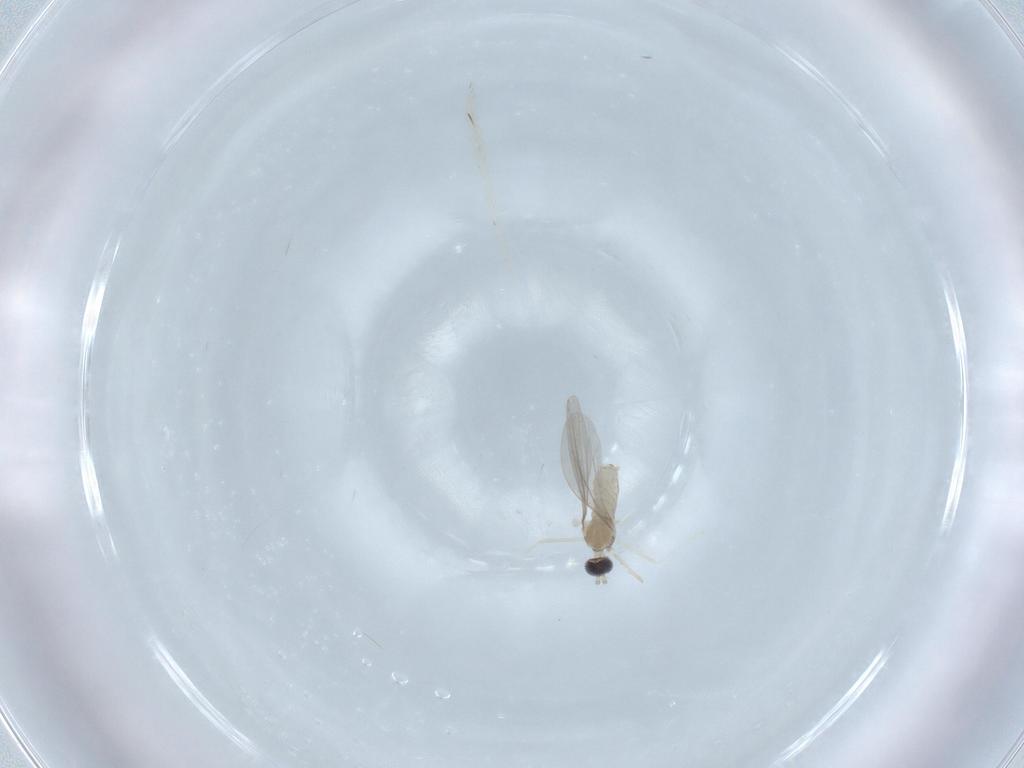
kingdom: Animalia
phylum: Arthropoda
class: Insecta
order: Diptera
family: Cecidomyiidae
